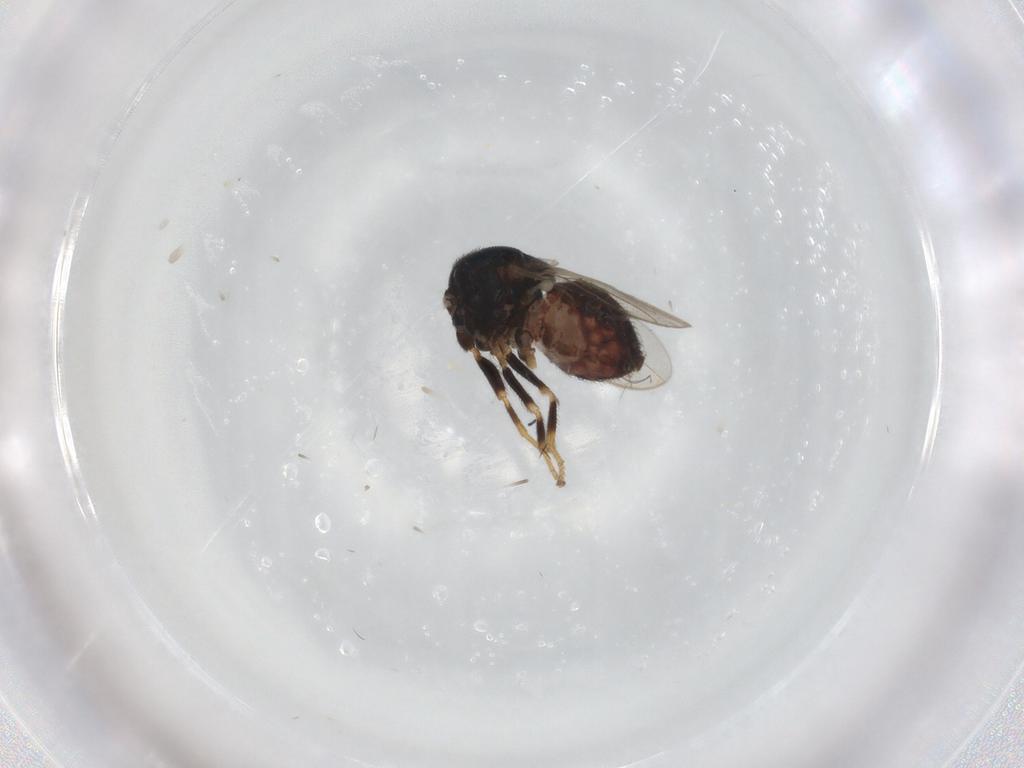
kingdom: Animalia
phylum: Arthropoda
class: Insecta
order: Diptera
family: Chloropidae
